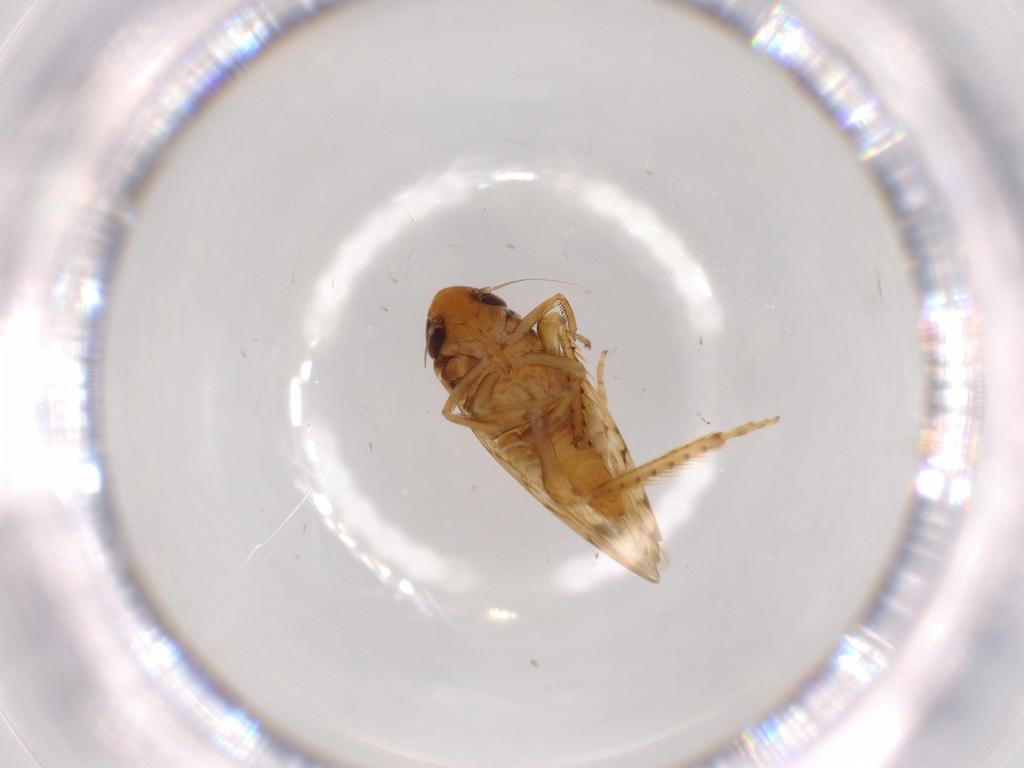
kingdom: Animalia
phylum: Arthropoda
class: Insecta
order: Hemiptera
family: Cicadellidae
